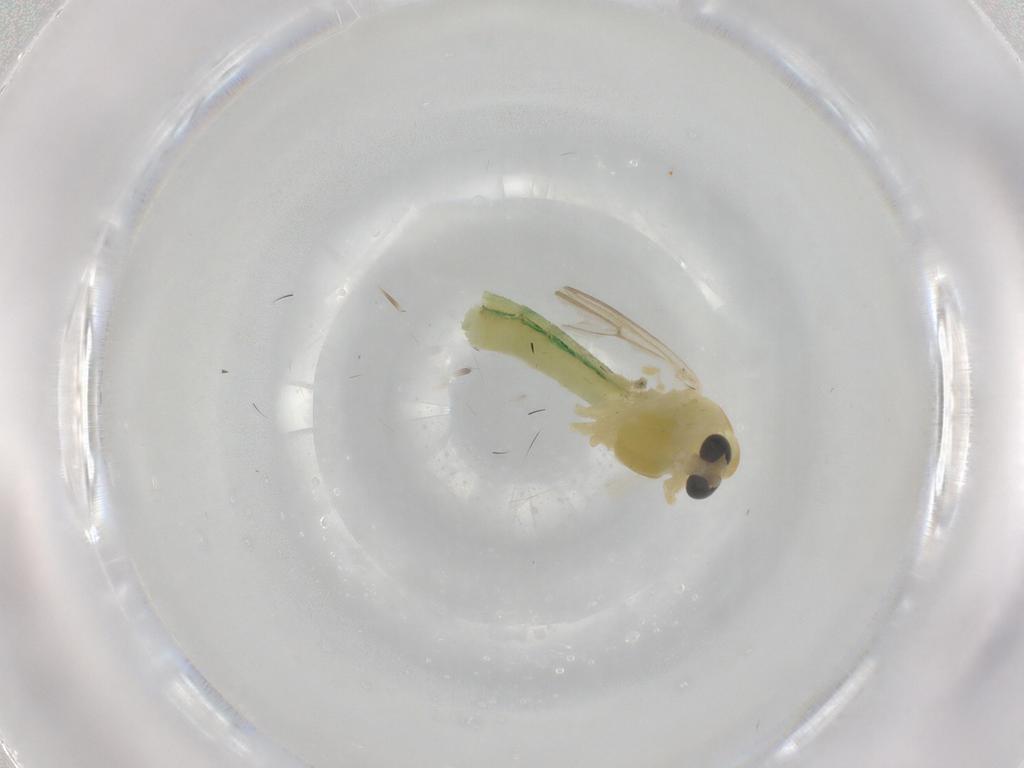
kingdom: Animalia
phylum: Arthropoda
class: Insecta
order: Diptera
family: Chironomidae
